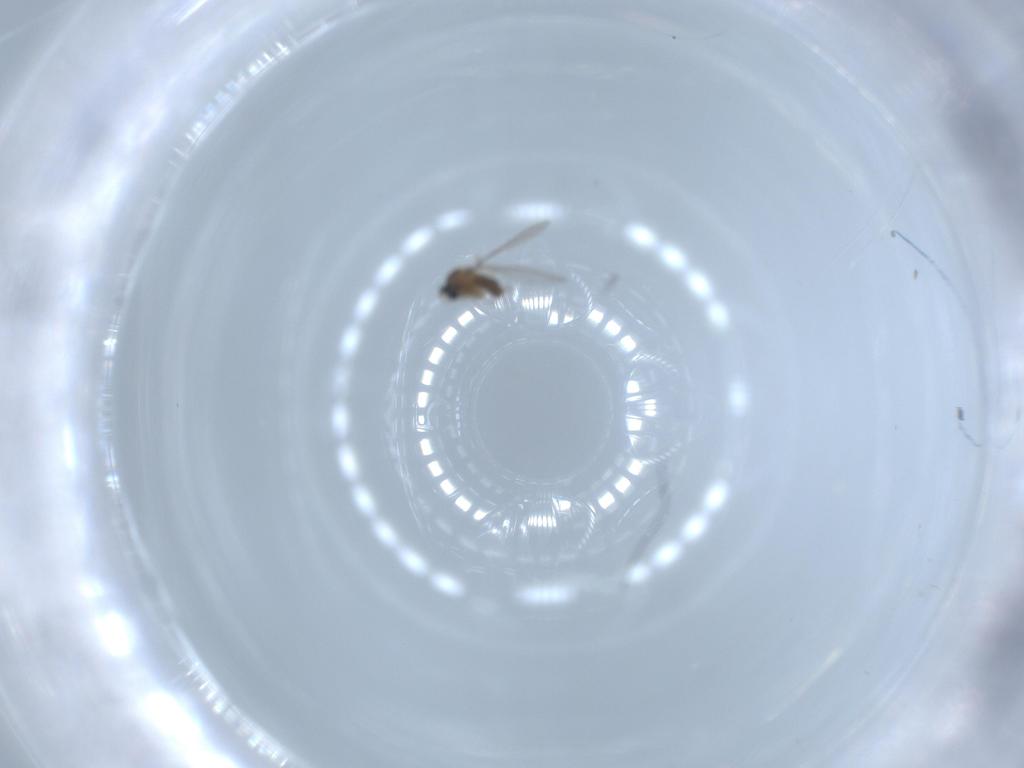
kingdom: Animalia
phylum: Arthropoda
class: Insecta
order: Diptera
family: Cecidomyiidae
